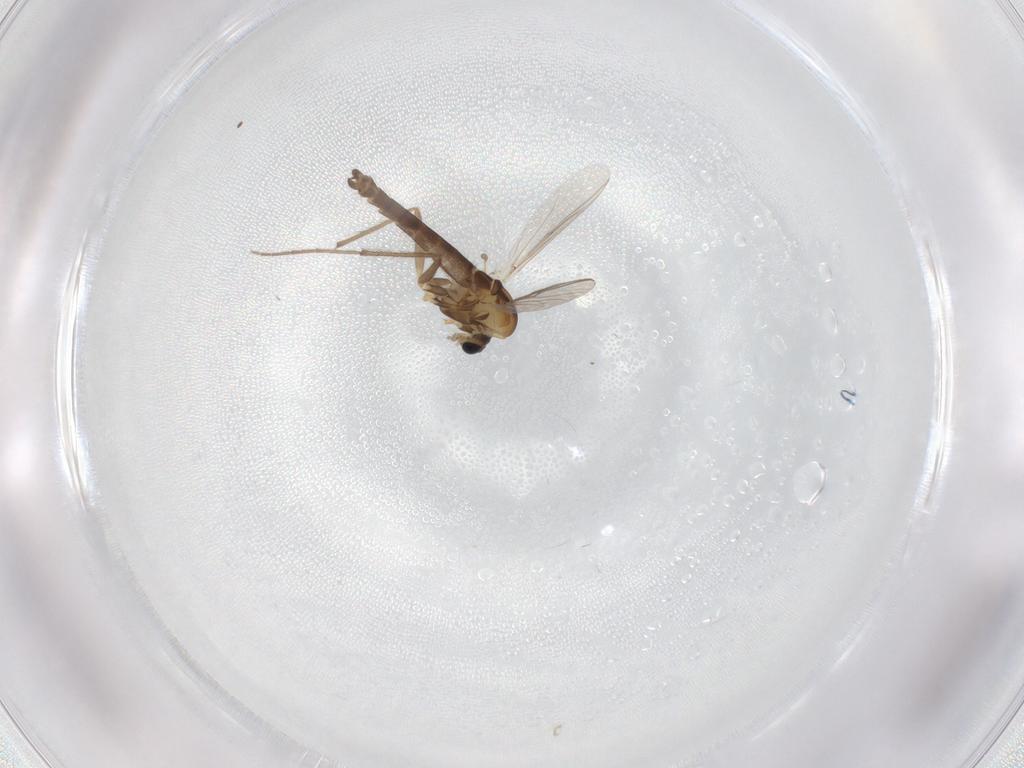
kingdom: Animalia
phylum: Arthropoda
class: Insecta
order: Diptera
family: Chironomidae
